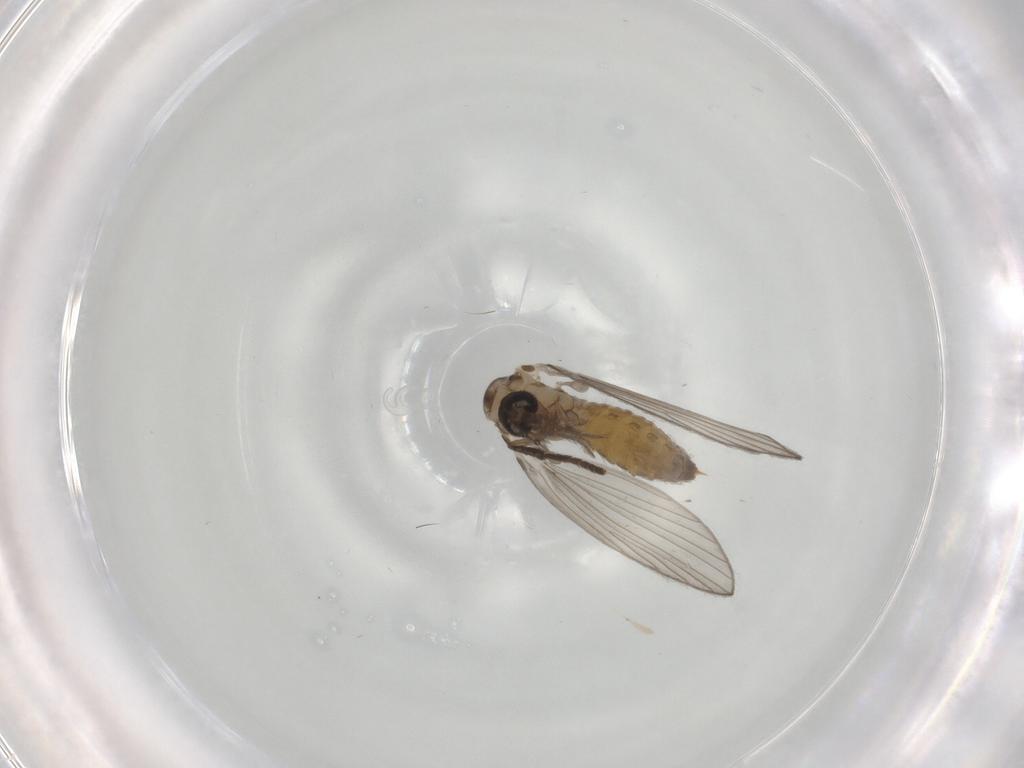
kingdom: Animalia
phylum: Arthropoda
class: Insecta
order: Diptera
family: Psychodidae
